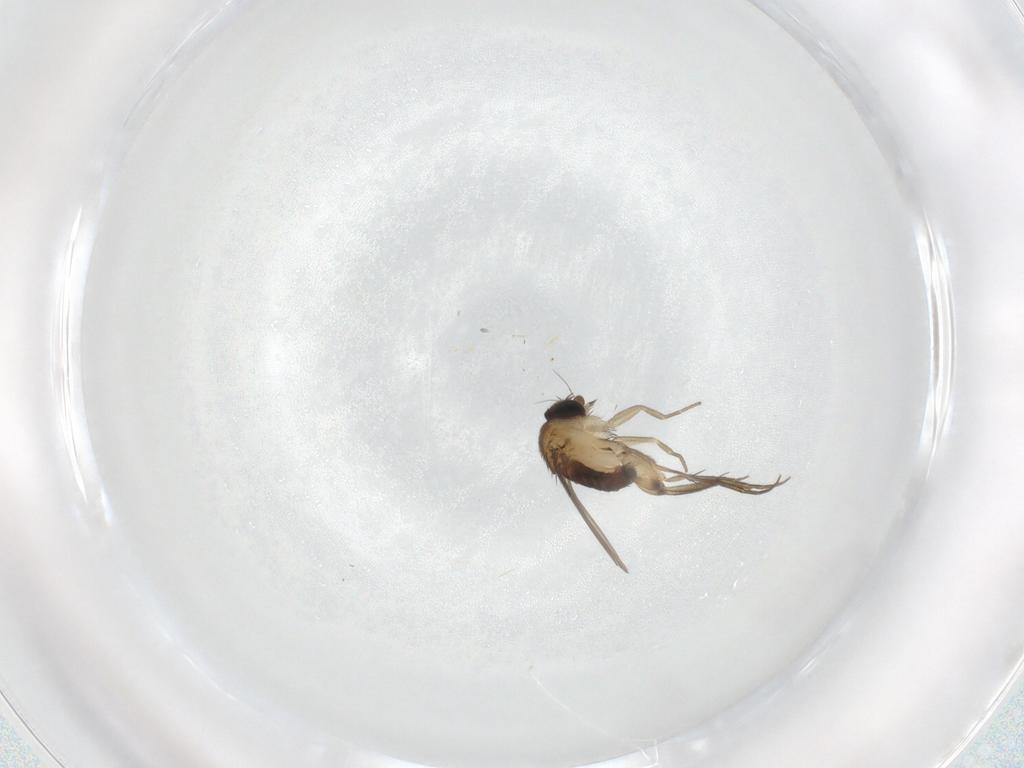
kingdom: Animalia
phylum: Arthropoda
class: Insecta
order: Diptera
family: Phoridae
